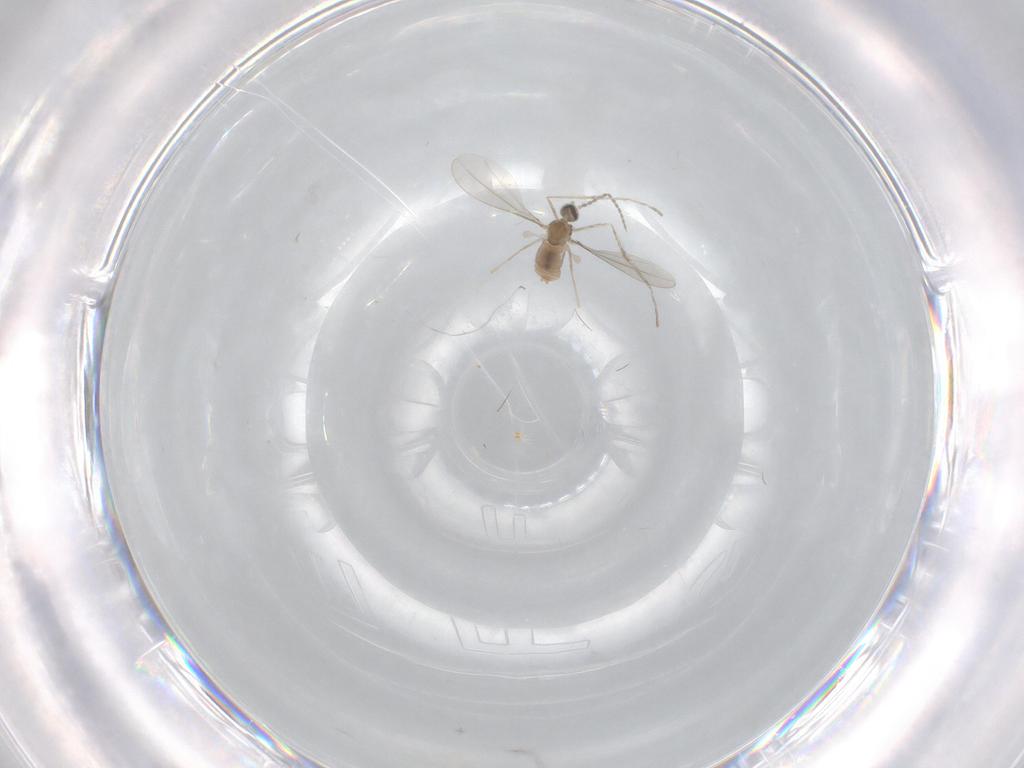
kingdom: Animalia
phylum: Arthropoda
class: Insecta
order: Diptera
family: Cecidomyiidae
